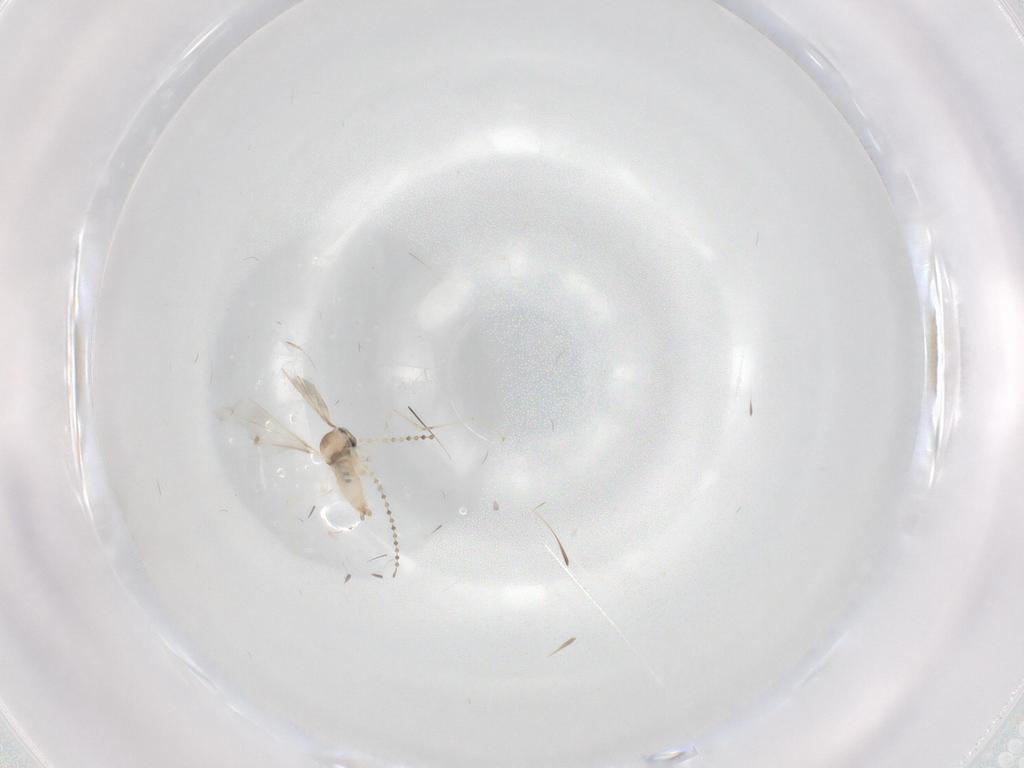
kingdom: Animalia
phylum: Arthropoda
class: Insecta
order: Diptera
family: Cecidomyiidae
